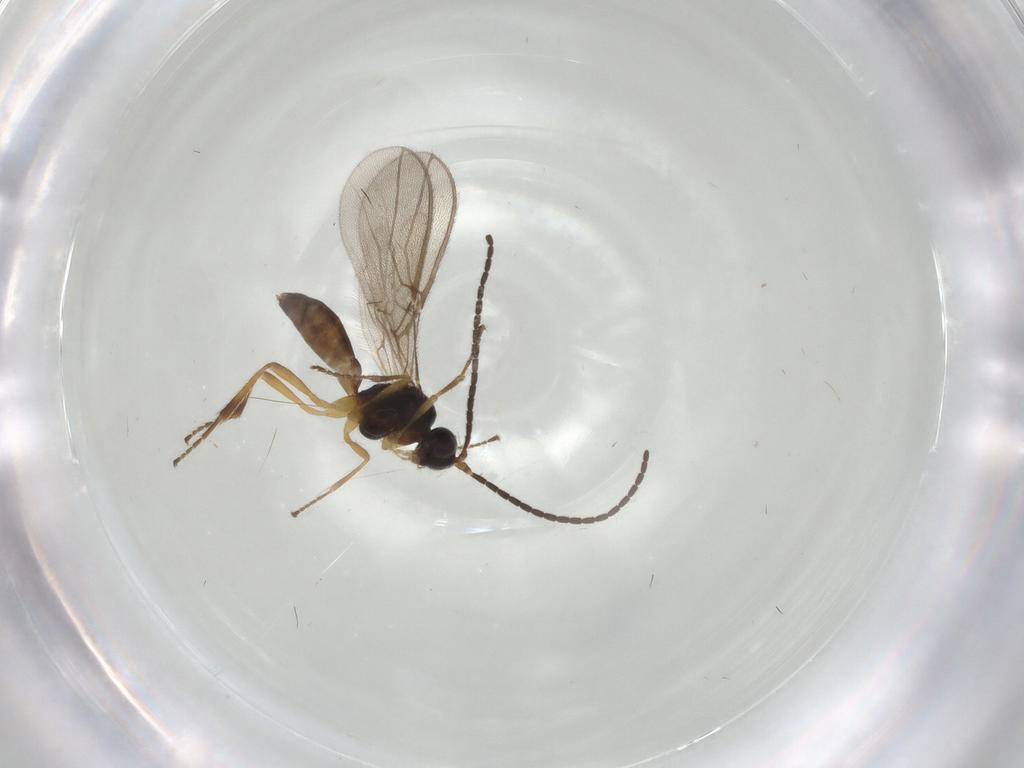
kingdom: Animalia
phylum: Arthropoda
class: Insecta
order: Hymenoptera
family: Braconidae
